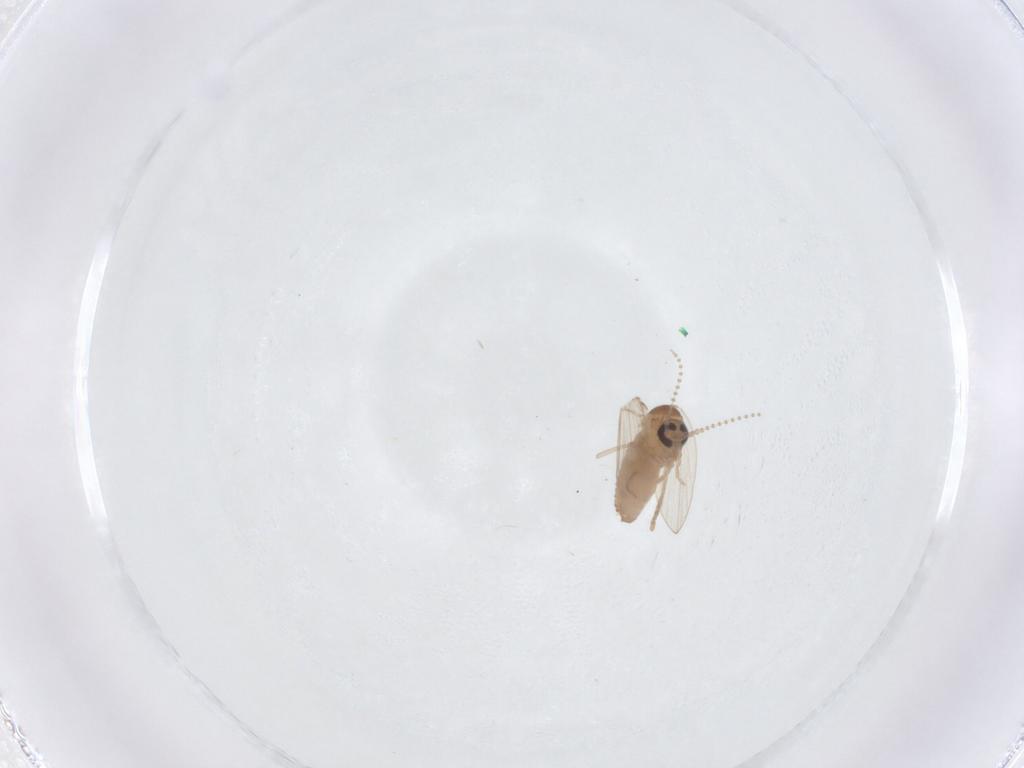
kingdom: Animalia
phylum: Arthropoda
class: Insecta
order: Diptera
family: Psychodidae
